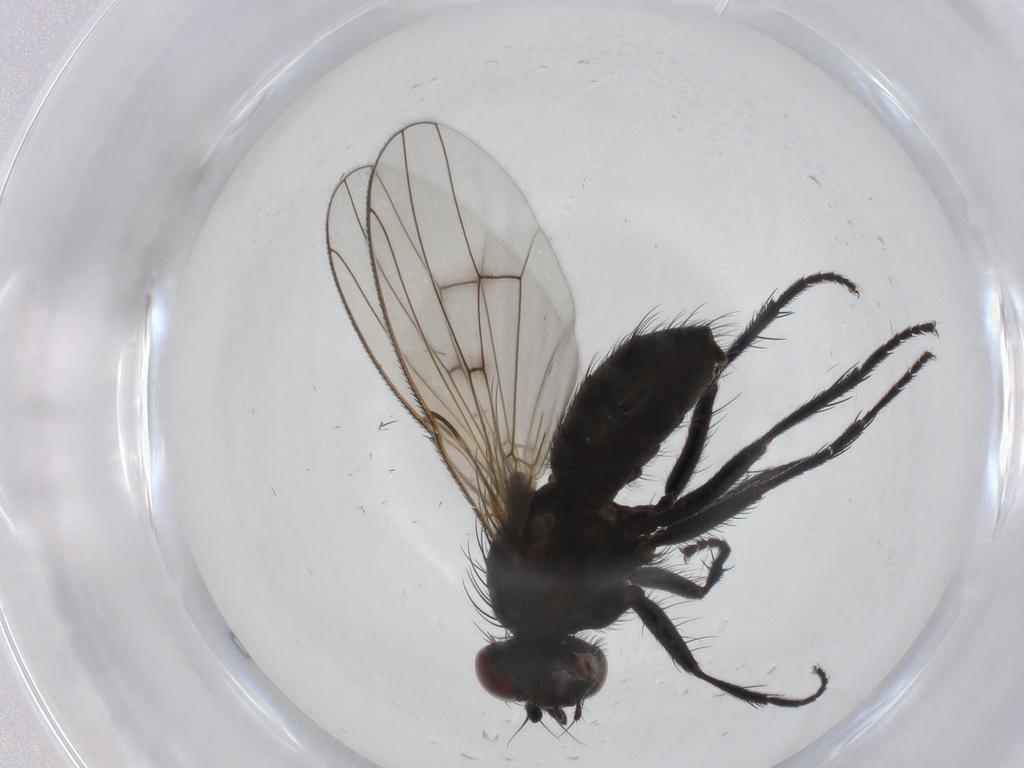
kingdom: Animalia
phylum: Arthropoda
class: Insecta
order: Diptera
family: Muscidae
